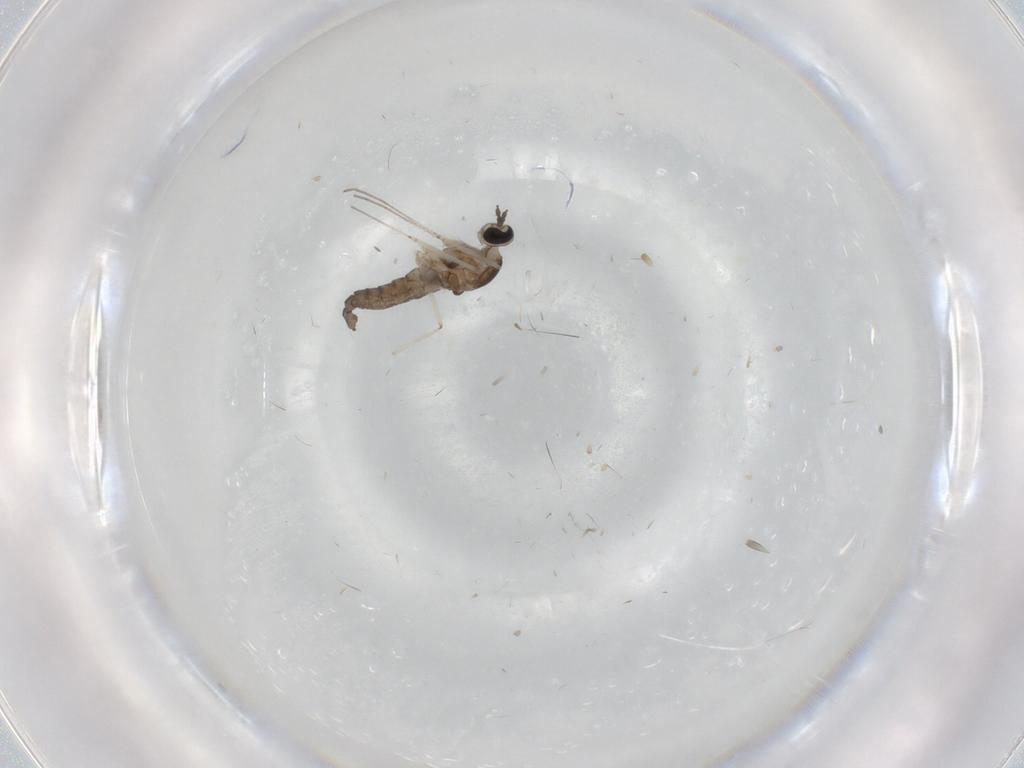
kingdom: Animalia
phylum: Arthropoda
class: Insecta
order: Diptera
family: Cecidomyiidae
